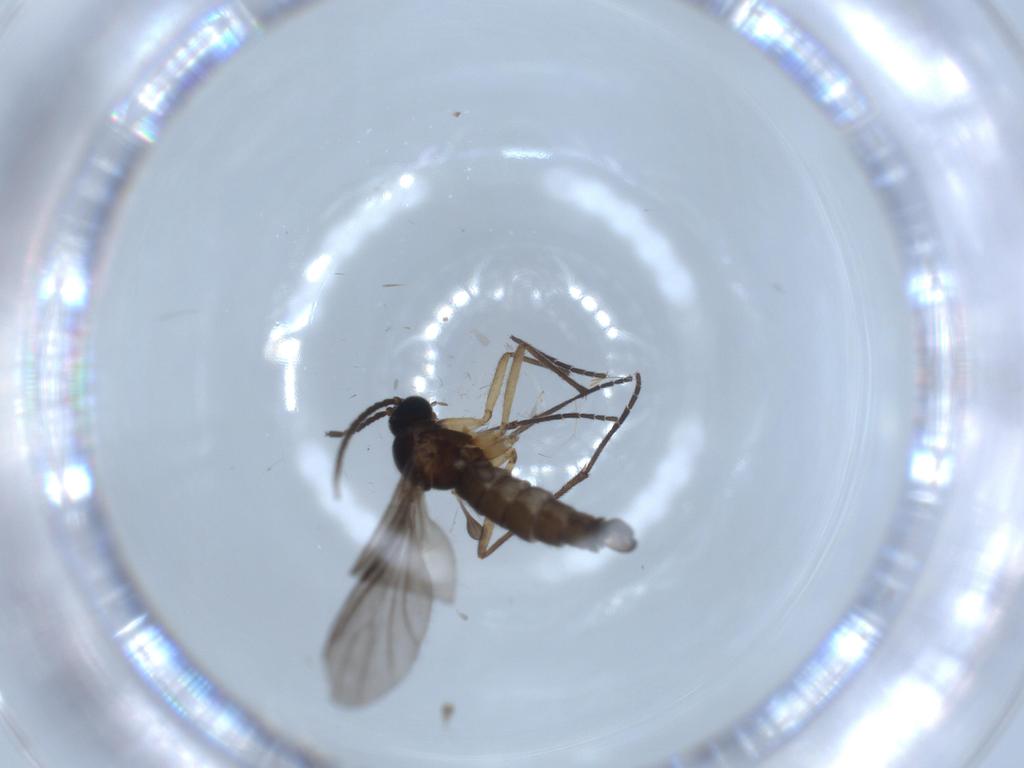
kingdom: Animalia
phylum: Arthropoda
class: Insecta
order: Diptera
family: Sciaridae
